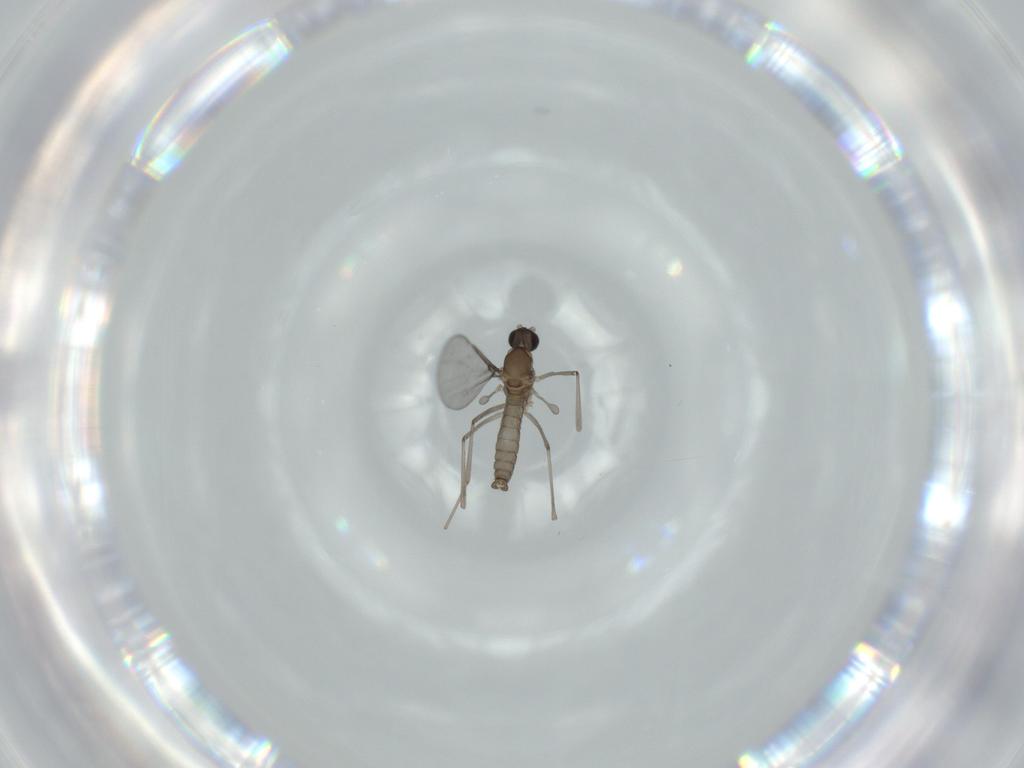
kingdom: Animalia
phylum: Arthropoda
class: Insecta
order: Diptera
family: Cecidomyiidae
